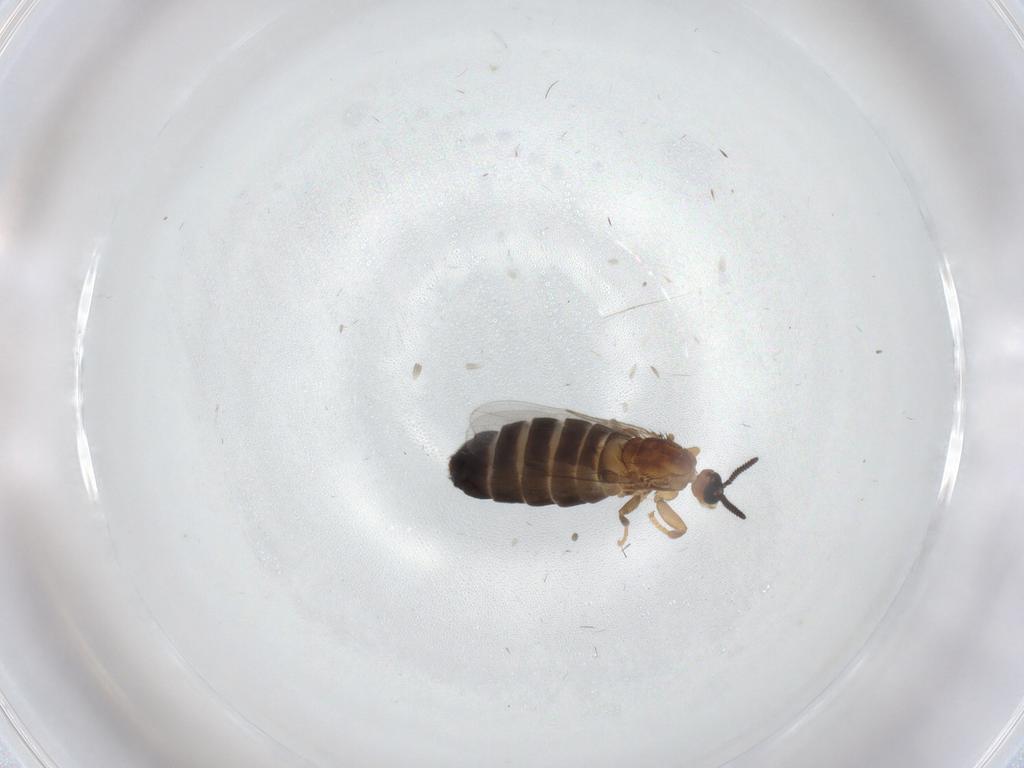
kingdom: Animalia
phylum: Arthropoda
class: Insecta
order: Diptera
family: Scatopsidae
